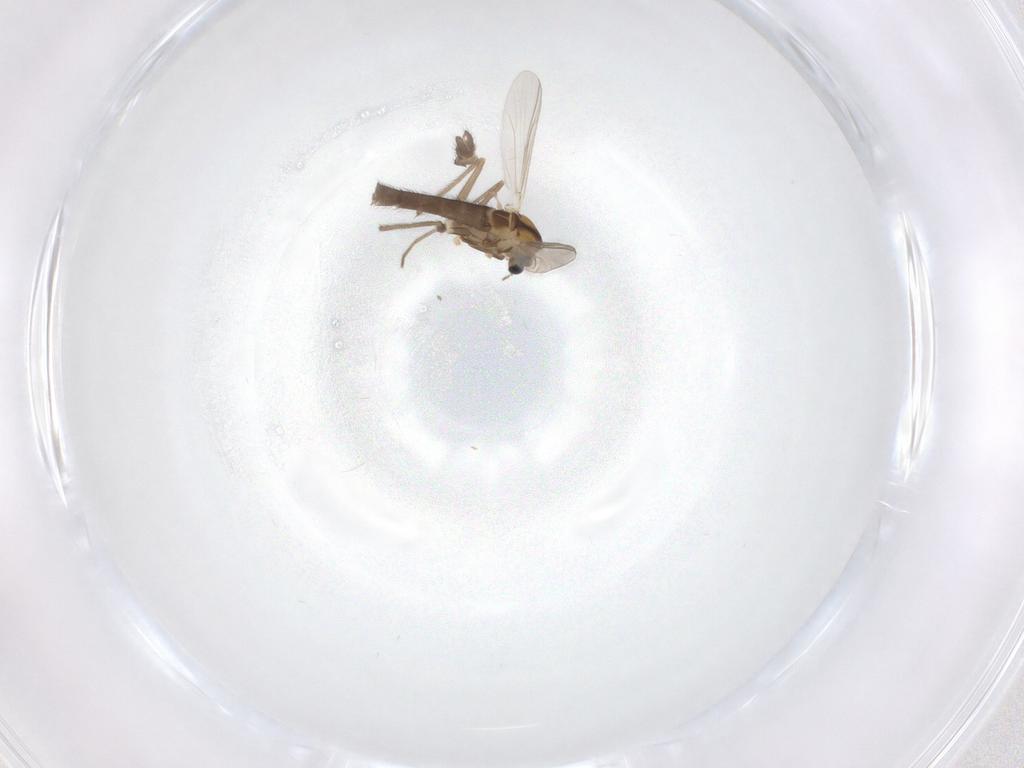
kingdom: Animalia
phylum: Arthropoda
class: Insecta
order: Diptera
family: Chironomidae
